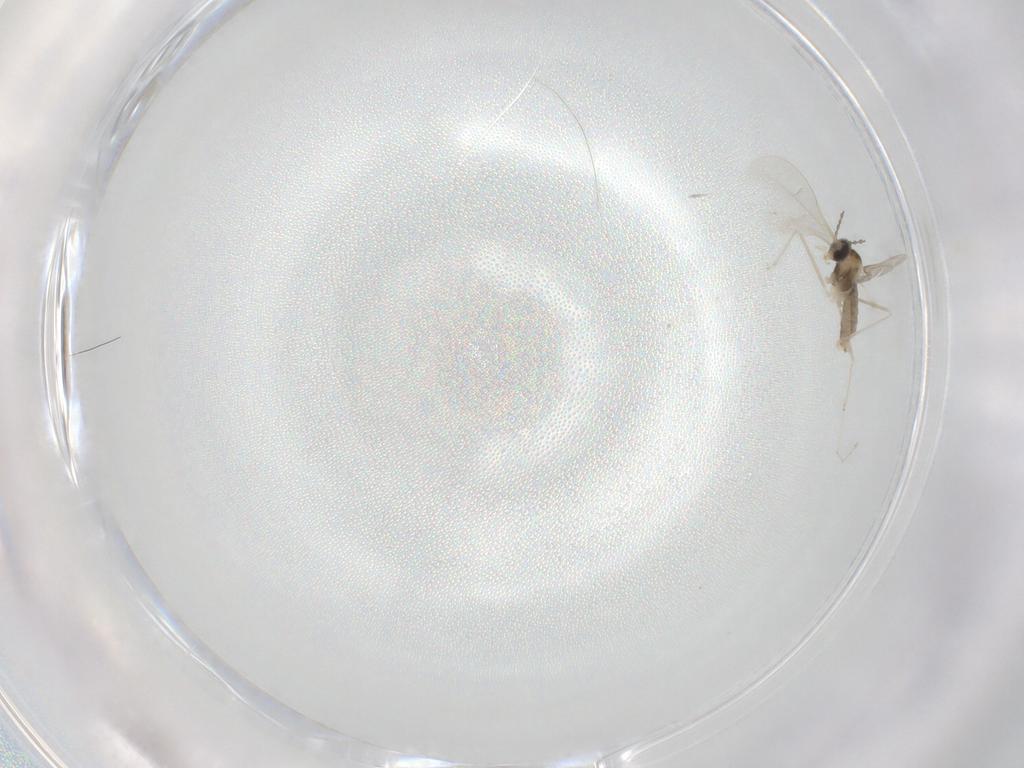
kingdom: Animalia
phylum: Arthropoda
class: Insecta
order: Diptera
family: Cecidomyiidae
